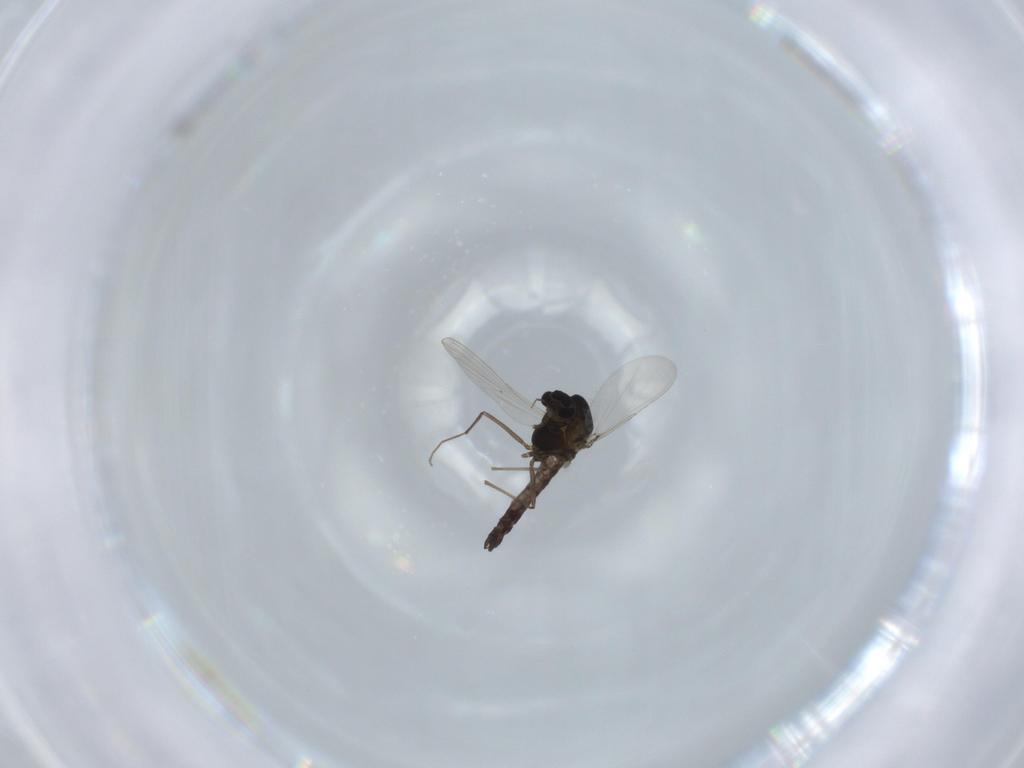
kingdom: Animalia
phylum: Arthropoda
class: Insecta
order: Diptera
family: Chironomidae
